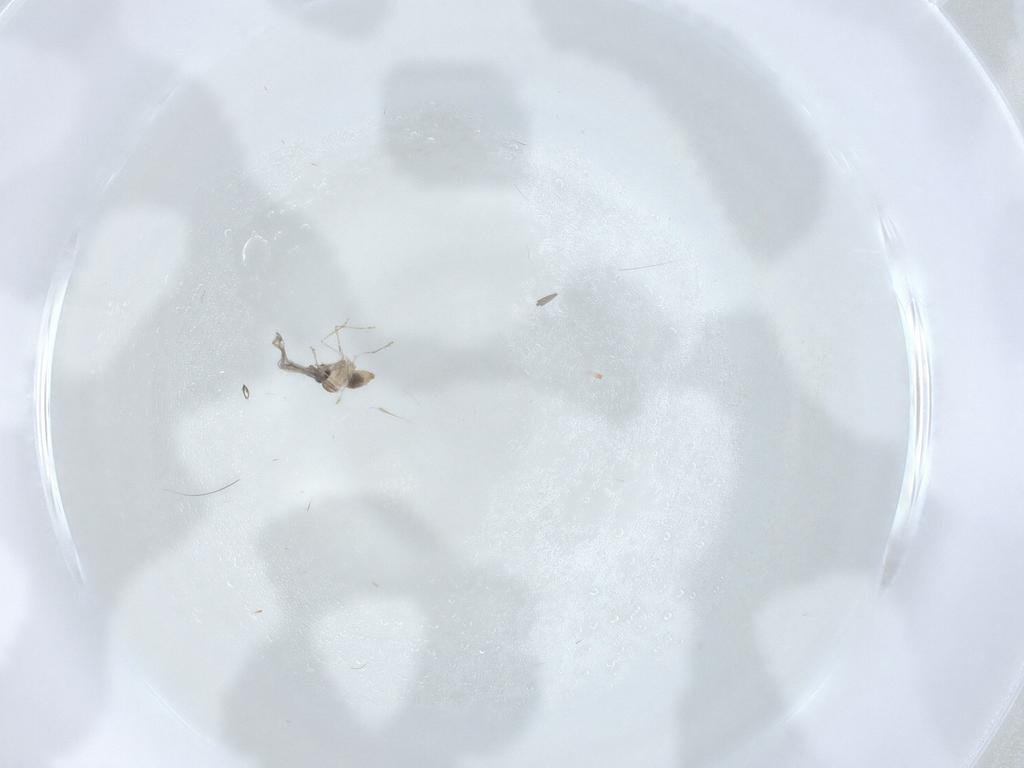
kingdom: Animalia
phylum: Arthropoda
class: Insecta
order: Diptera
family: Cecidomyiidae
